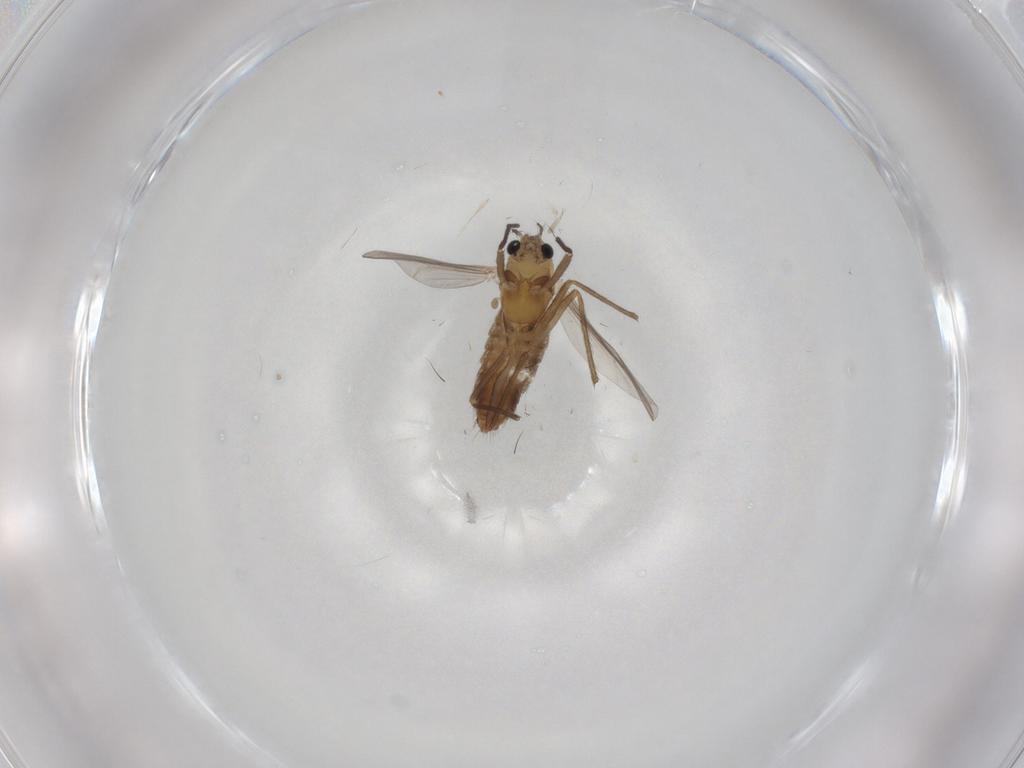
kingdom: Animalia
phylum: Arthropoda
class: Insecta
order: Diptera
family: Chironomidae
